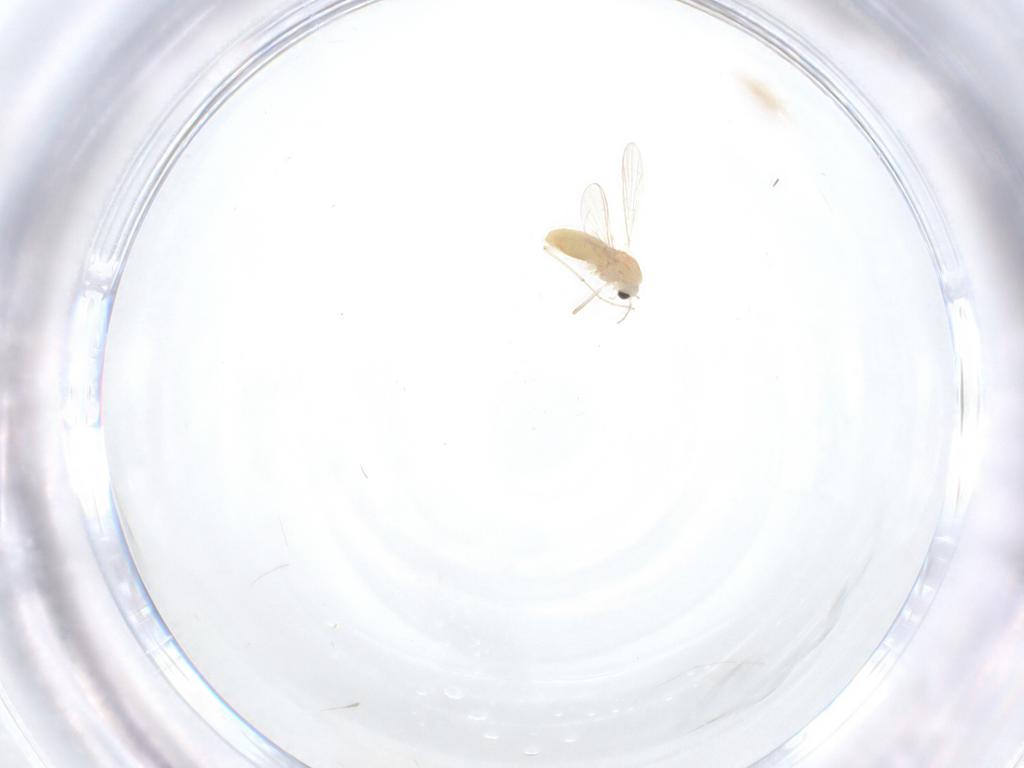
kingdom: Animalia
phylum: Arthropoda
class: Insecta
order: Diptera
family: Chironomidae
